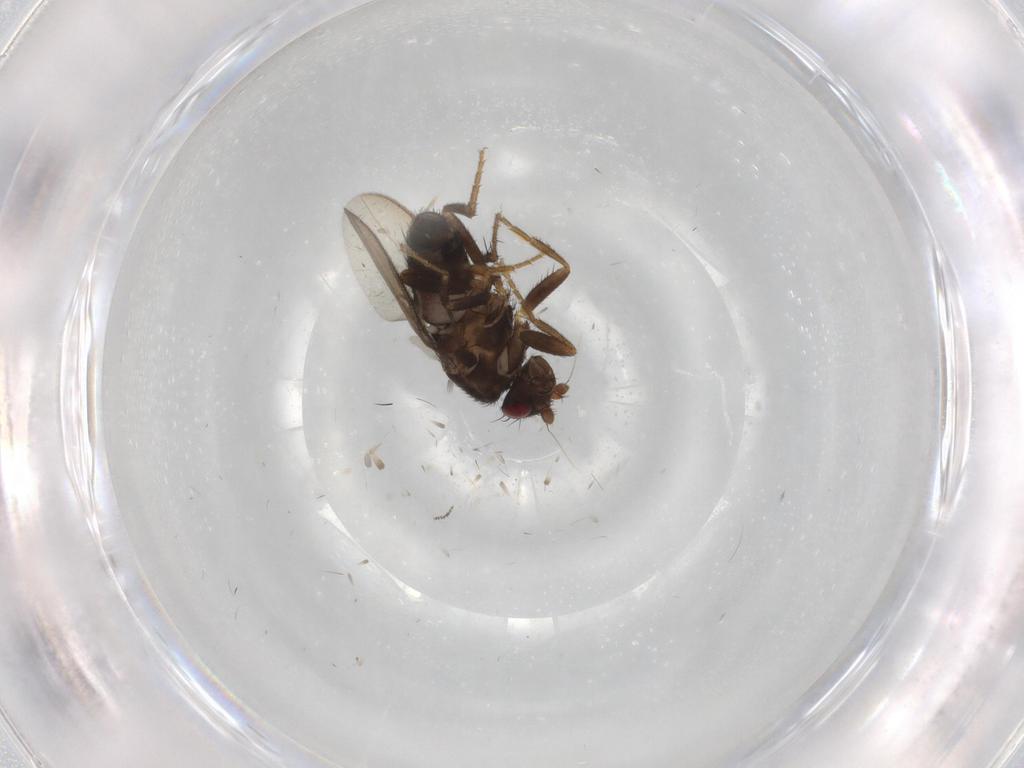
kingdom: Animalia
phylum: Arthropoda
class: Insecta
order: Diptera
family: Sphaeroceridae
